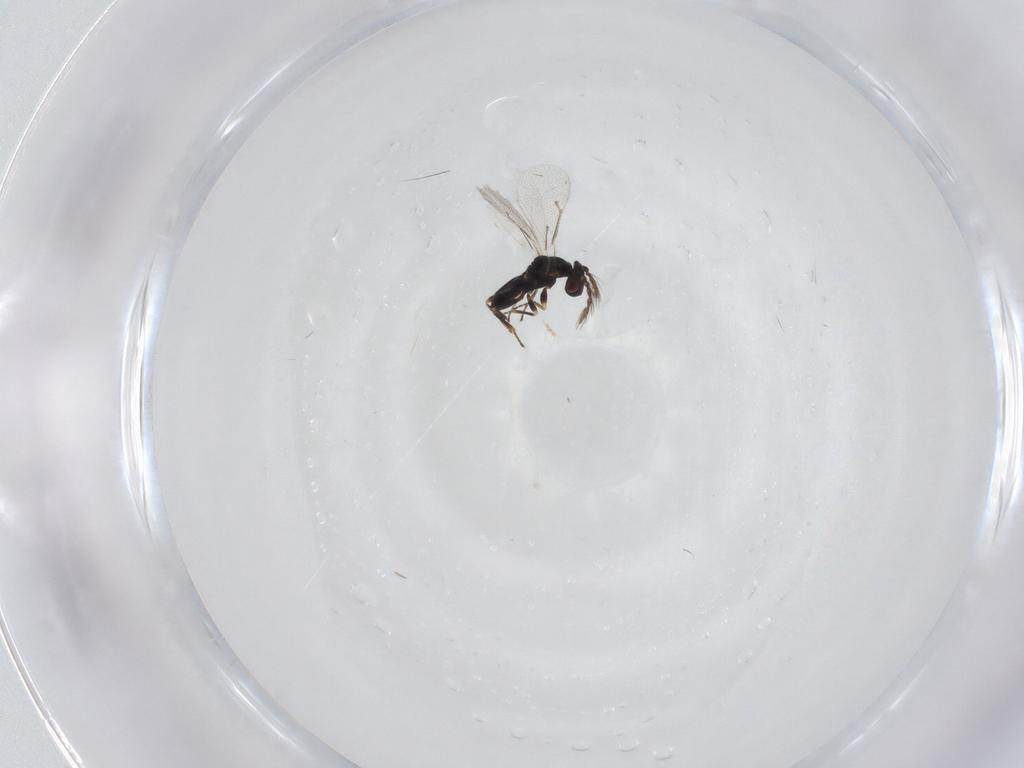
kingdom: Animalia
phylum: Arthropoda
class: Insecta
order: Hymenoptera
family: Eulophidae
